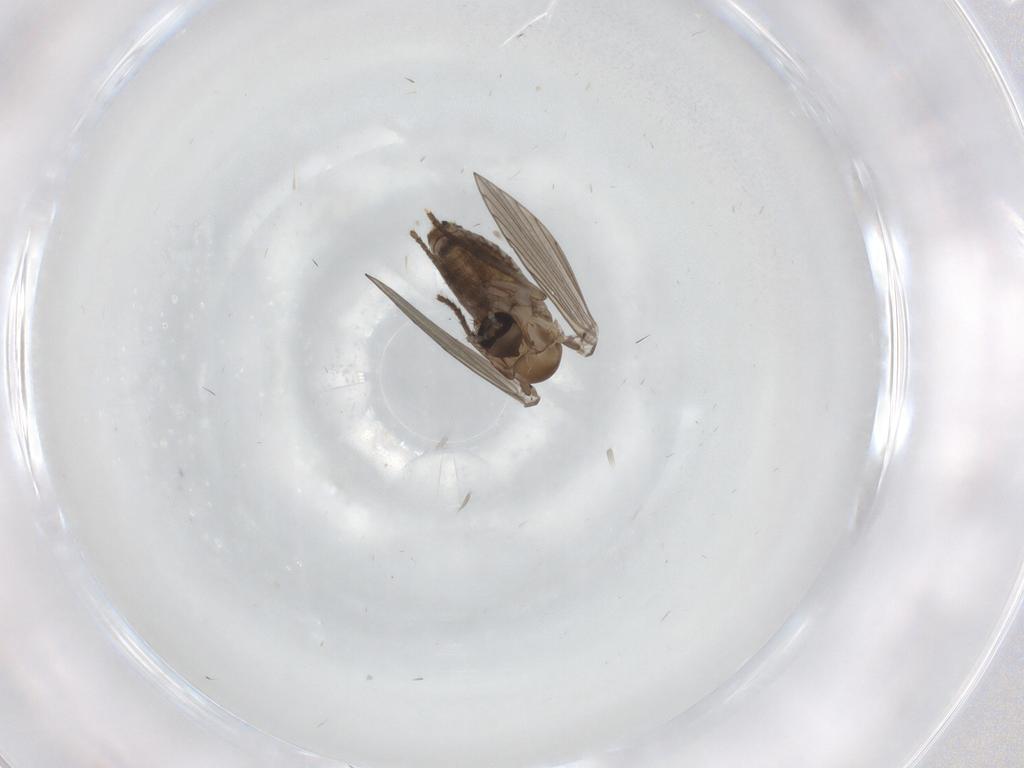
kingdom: Animalia
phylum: Arthropoda
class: Insecta
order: Diptera
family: Psychodidae
